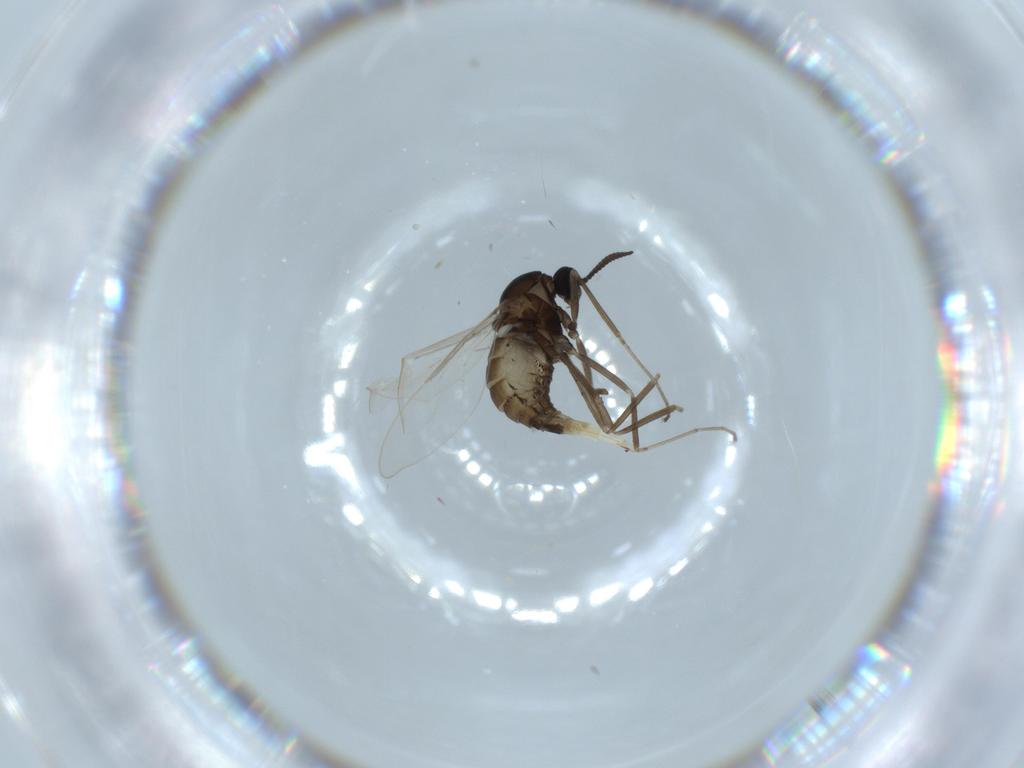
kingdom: Animalia
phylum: Arthropoda
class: Insecta
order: Diptera
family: Cecidomyiidae
